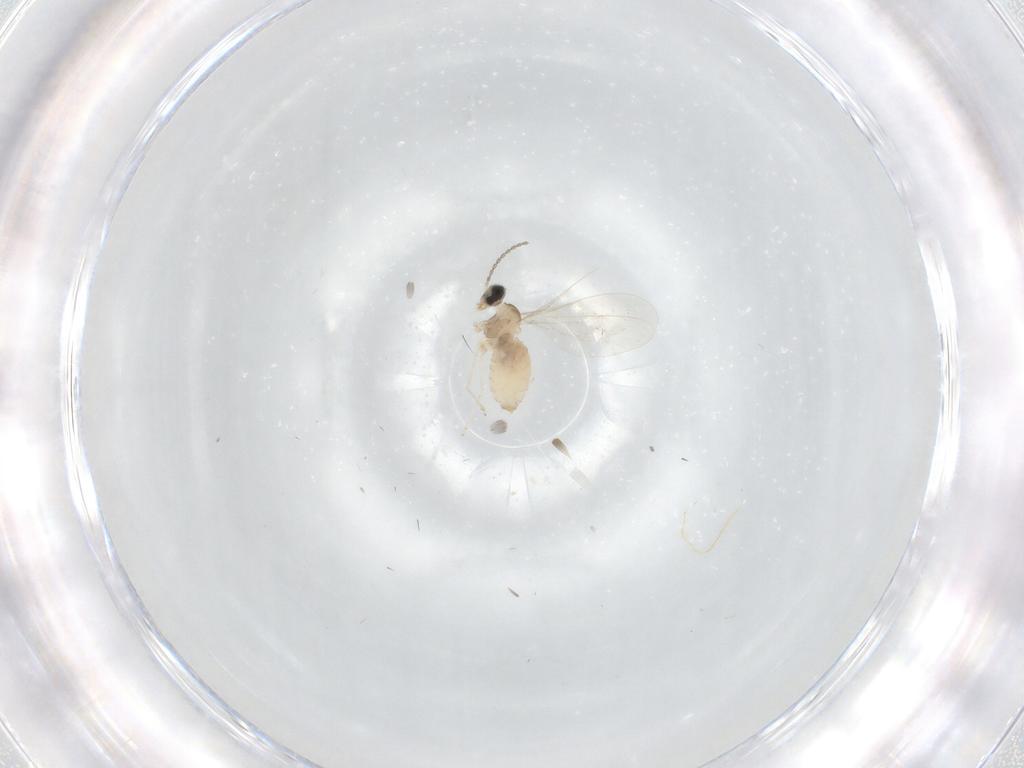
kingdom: Animalia
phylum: Arthropoda
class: Insecta
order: Diptera
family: Cecidomyiidae
